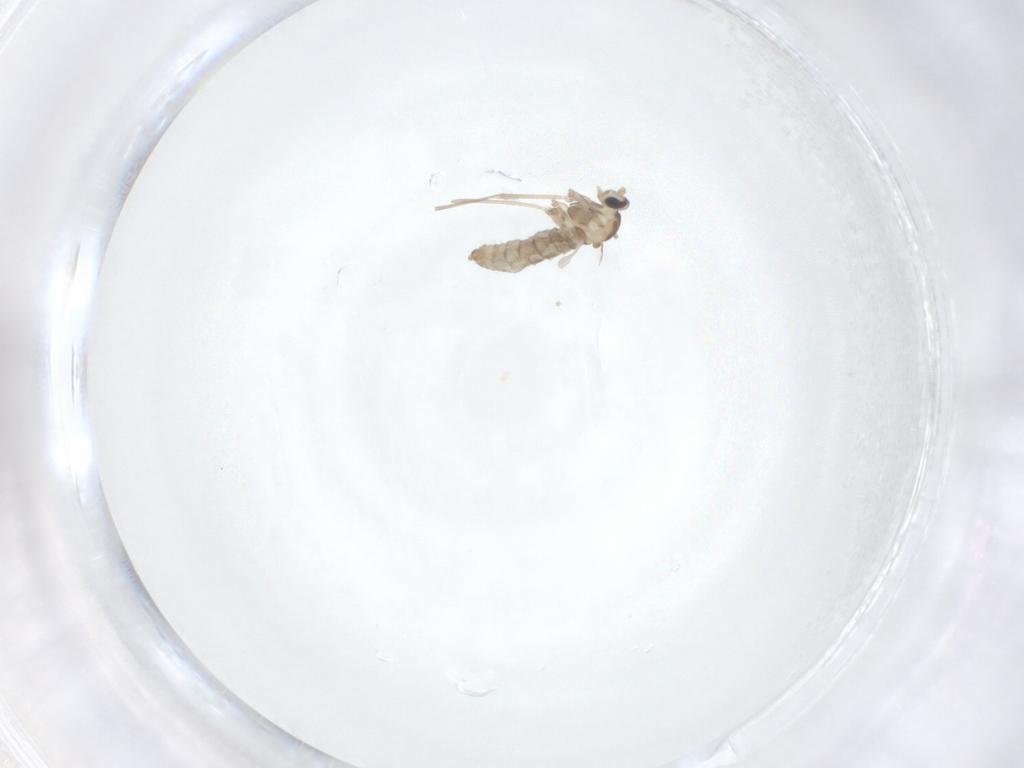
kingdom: Animalia
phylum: Arthropoda
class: Insecta
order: Diptera
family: Cecidomyiidae
